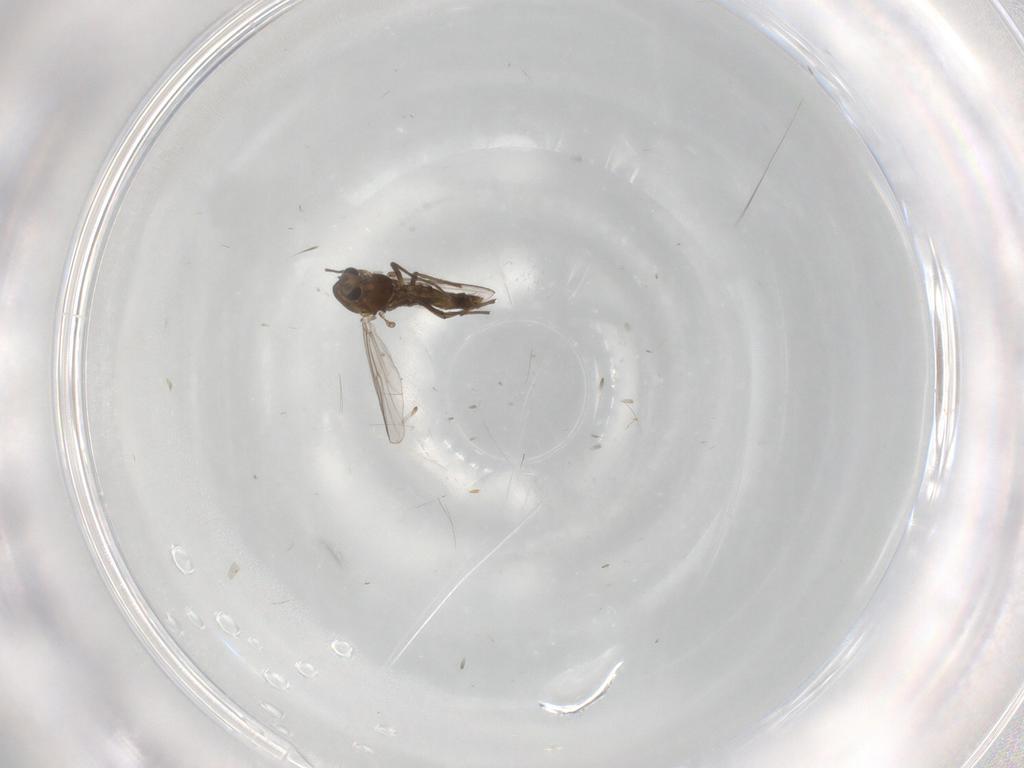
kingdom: Animalia
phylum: Arthropoda
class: Insecta
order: Diptera
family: Chironomidae
